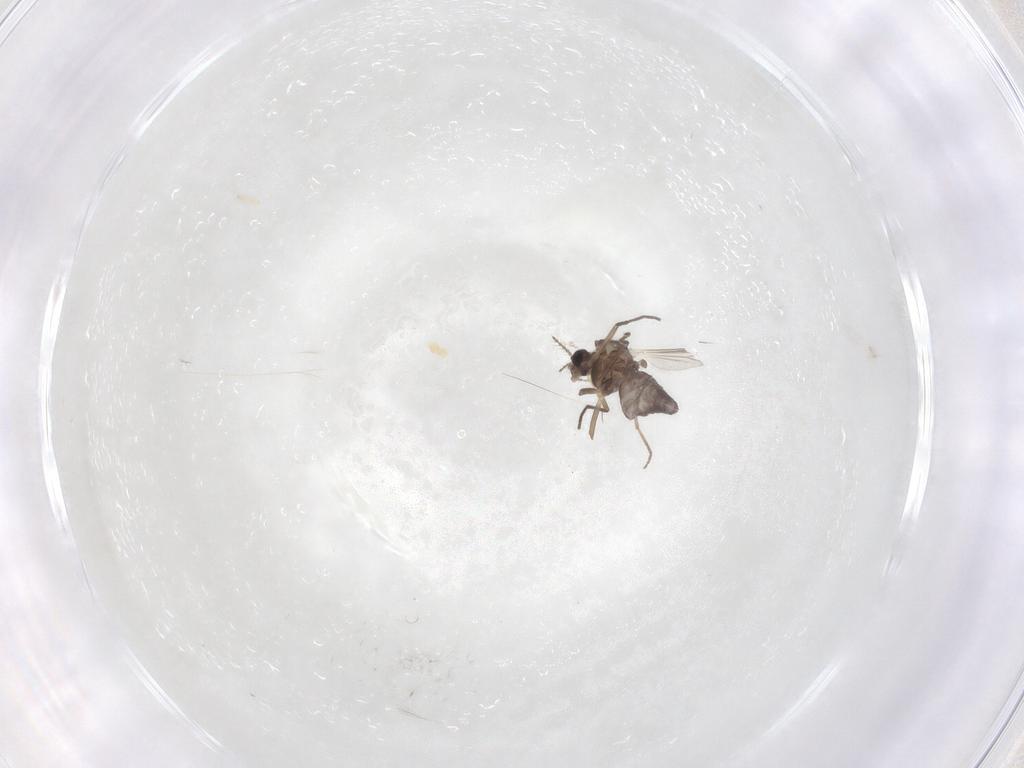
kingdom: Animalia
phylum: Arthropoda
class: Insecta
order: Diptera
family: Chironomidae
